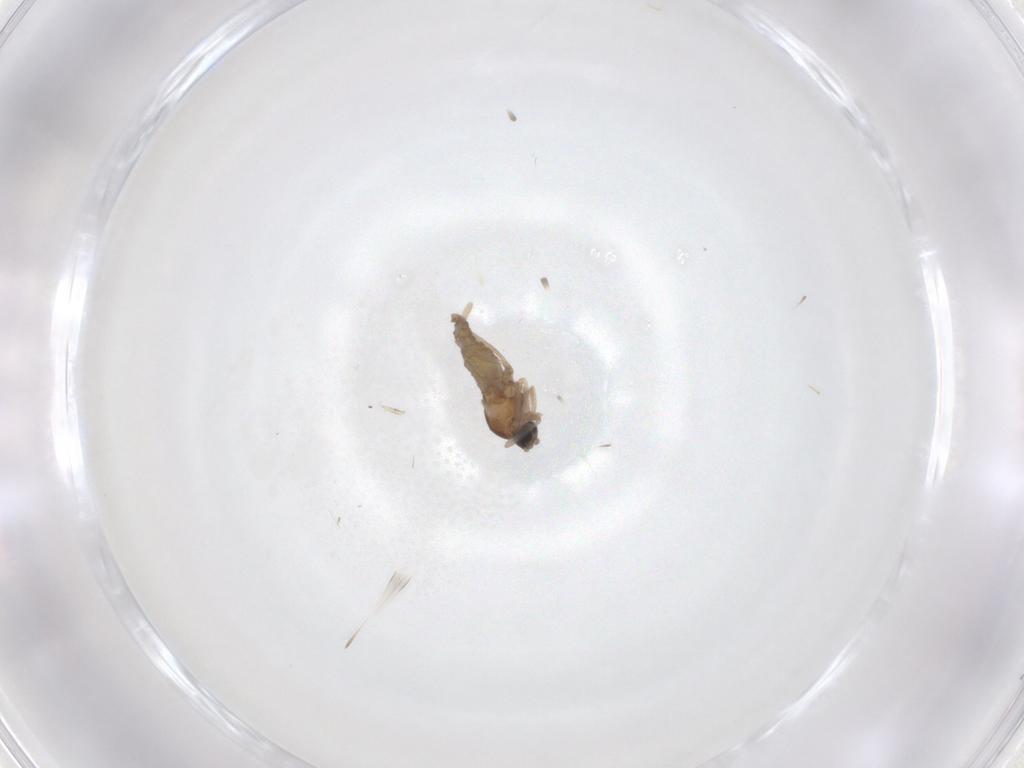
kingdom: Animalia
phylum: Arthropoda
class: Insecta
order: Diptera
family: Cecidomyiidae
